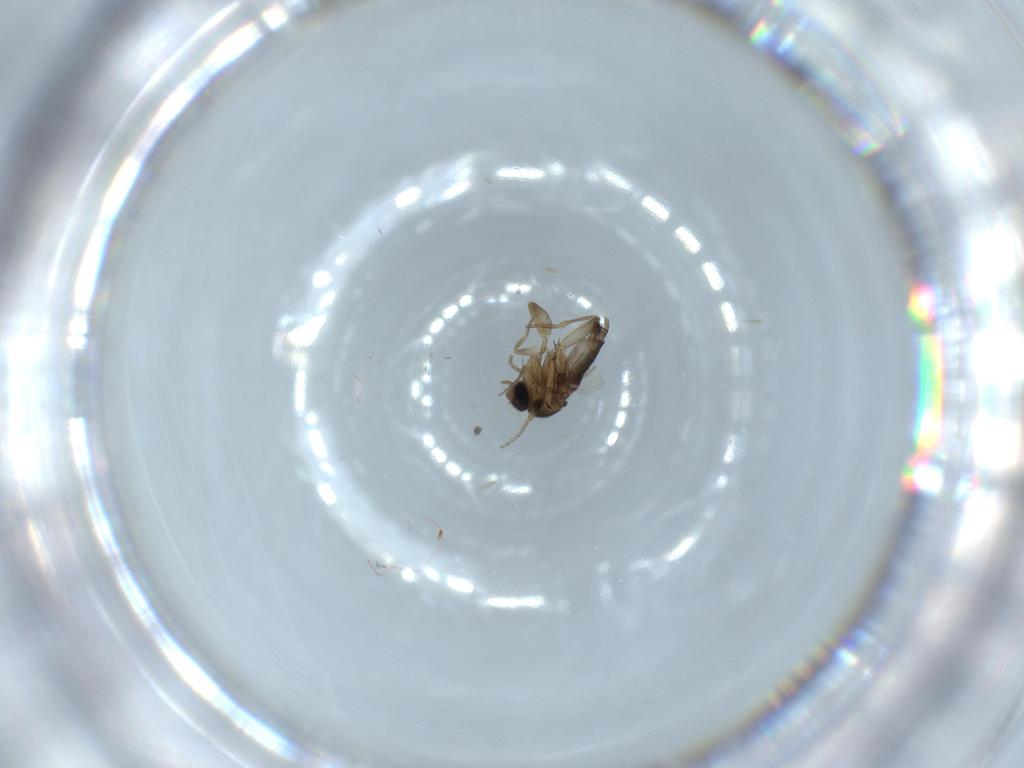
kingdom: Animalia
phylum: Arthropoda
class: Insecta
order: Diptera
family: Phoridae
